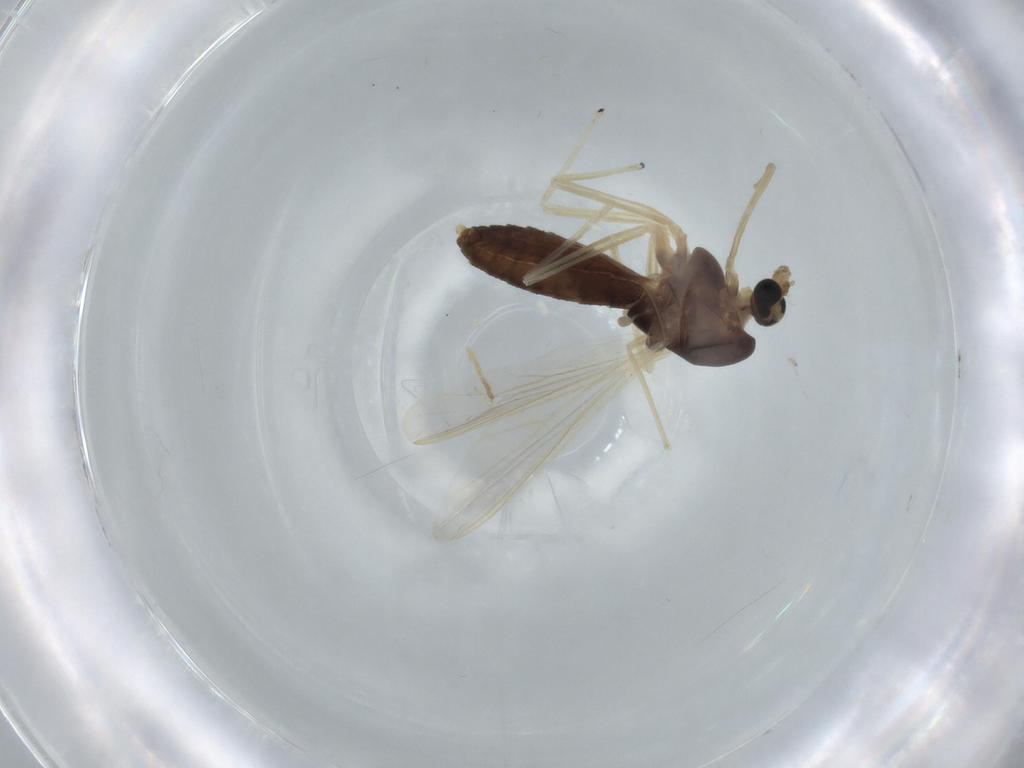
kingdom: Animalia
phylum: Arthropoda
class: Insecta
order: Diptera
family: Chironomidae
